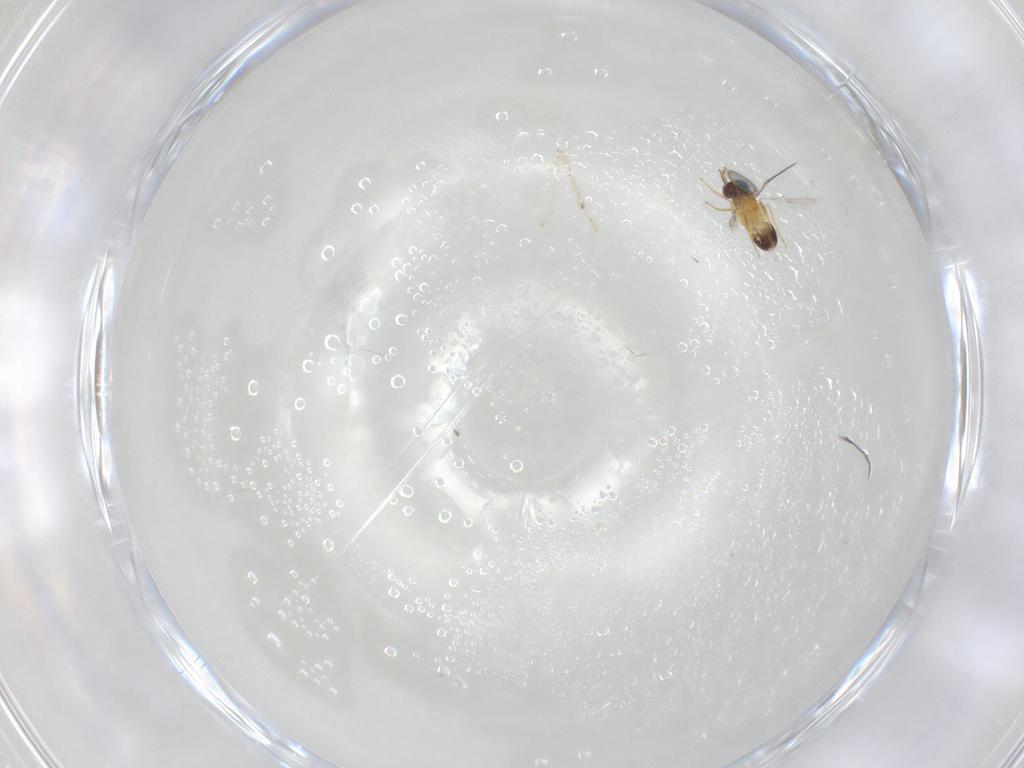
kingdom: Animalia
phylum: Arthropoda
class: Insecta
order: Hymenoptera
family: Mymaridae
